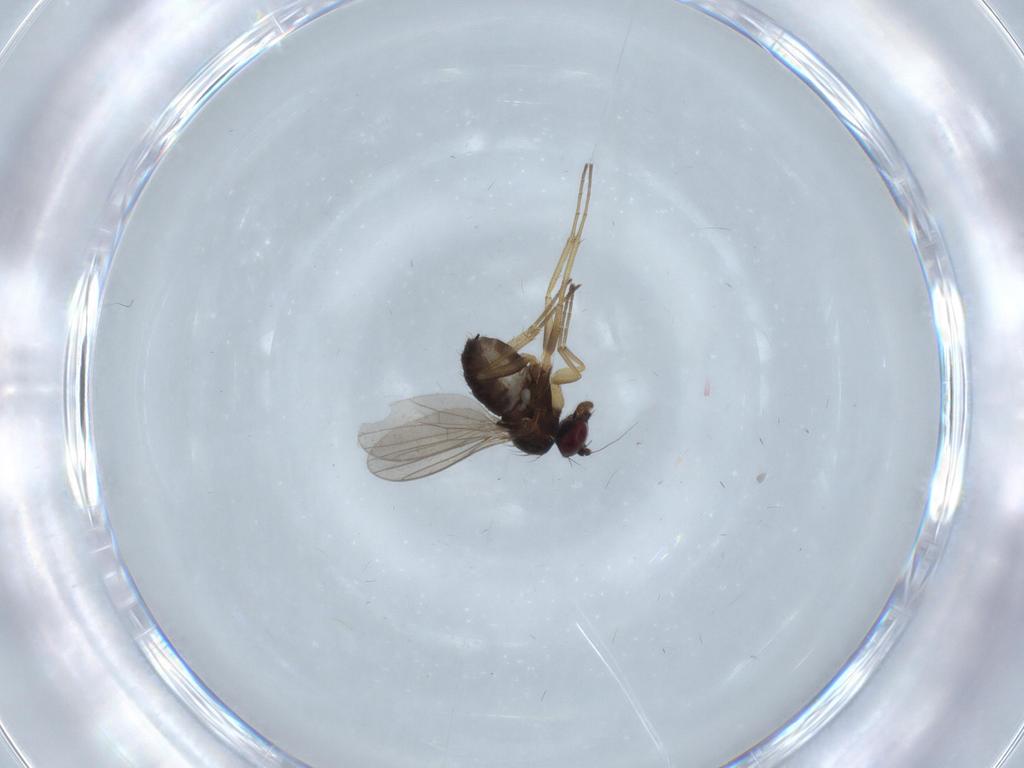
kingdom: Animalia
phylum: Arthropoda
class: Insecta
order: Diptera
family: Dolichopodidae
